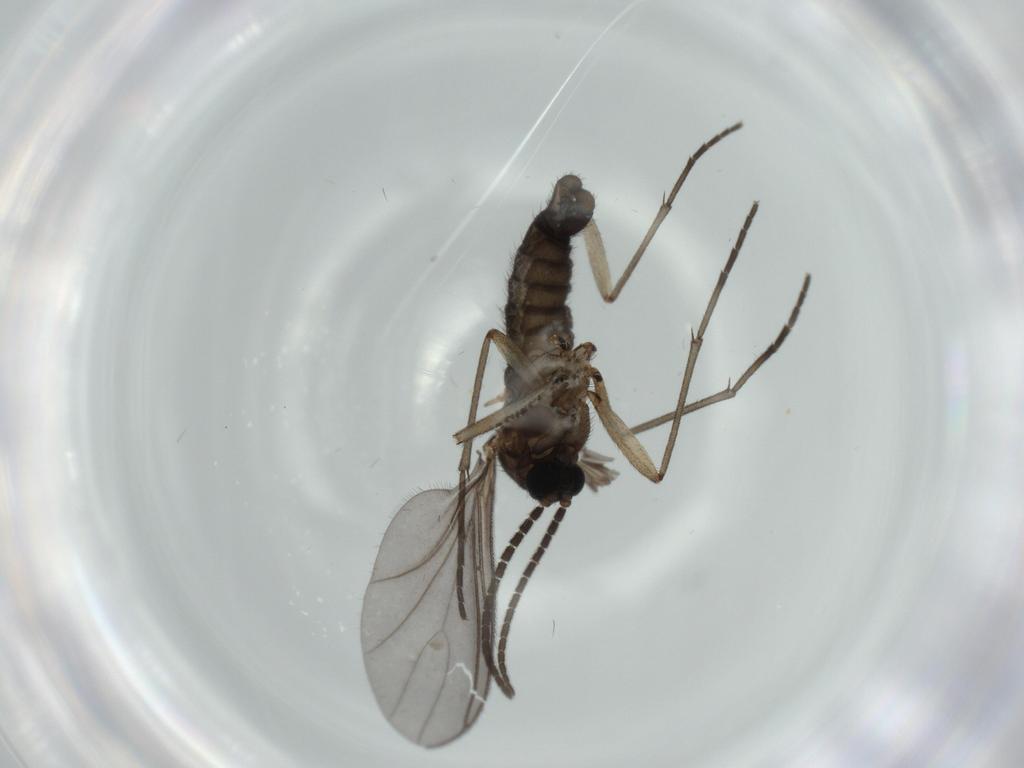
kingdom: Animalia
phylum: Arthropoda
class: Insecta
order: Diptera
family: Sciaridae
